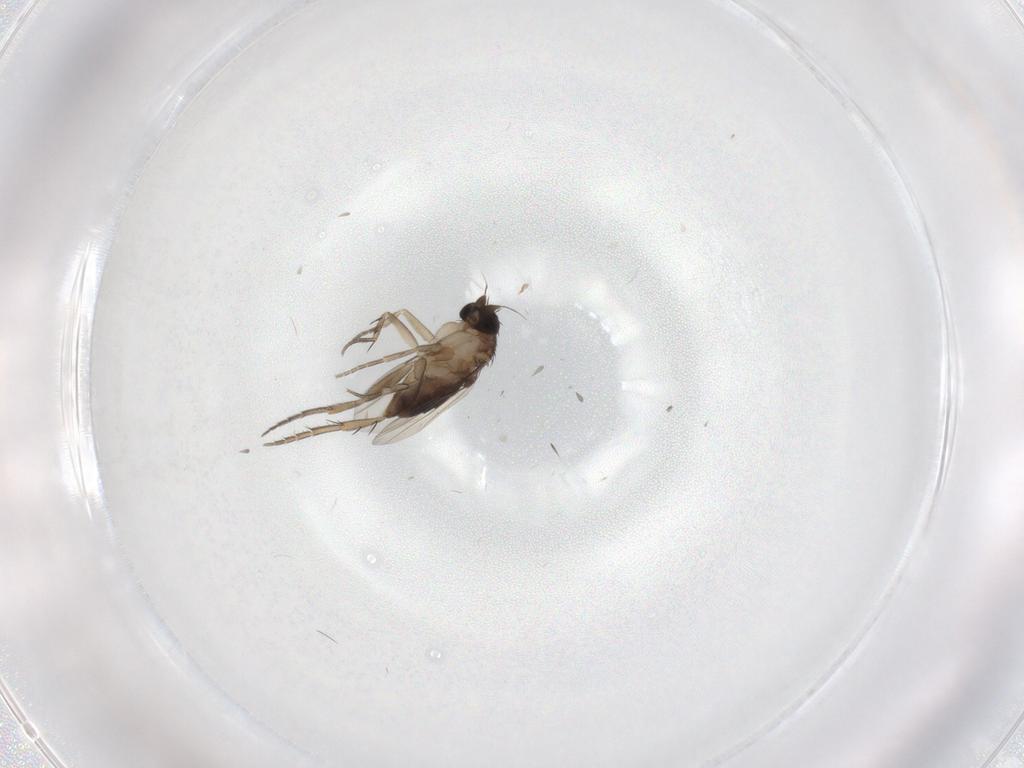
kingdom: Animalia
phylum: Arthropoda
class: Insecta
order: Diptera
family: Phoridae
